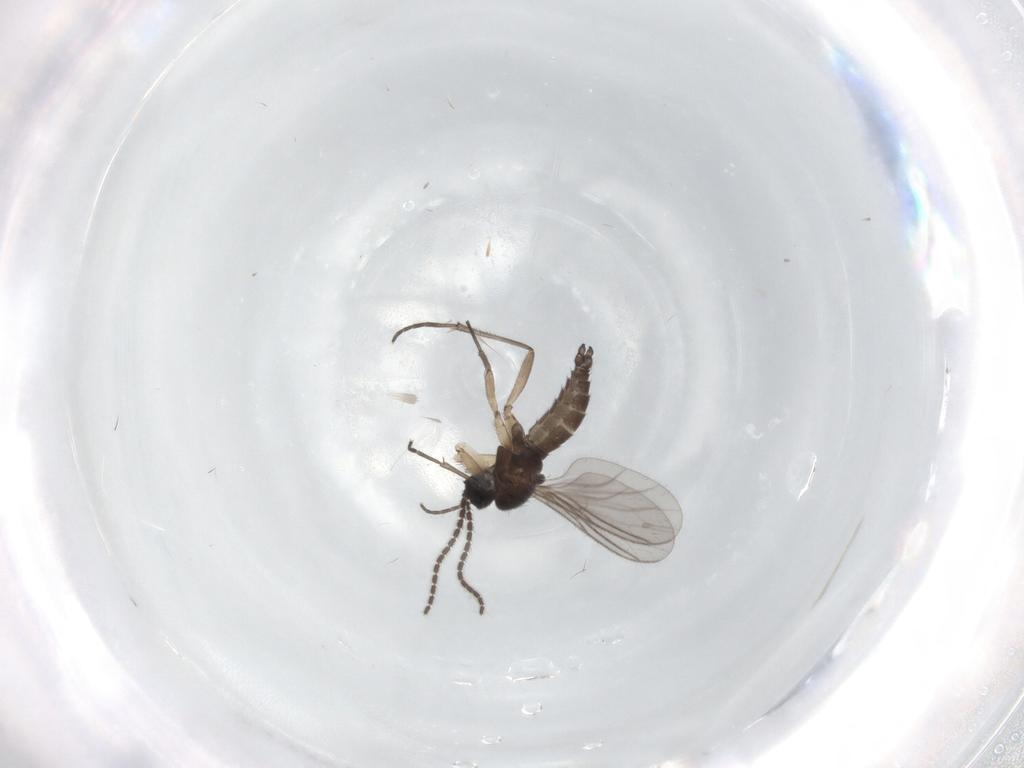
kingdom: Animalia
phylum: Arthropoda
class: Insecta
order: Diptera
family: Sciaridae
